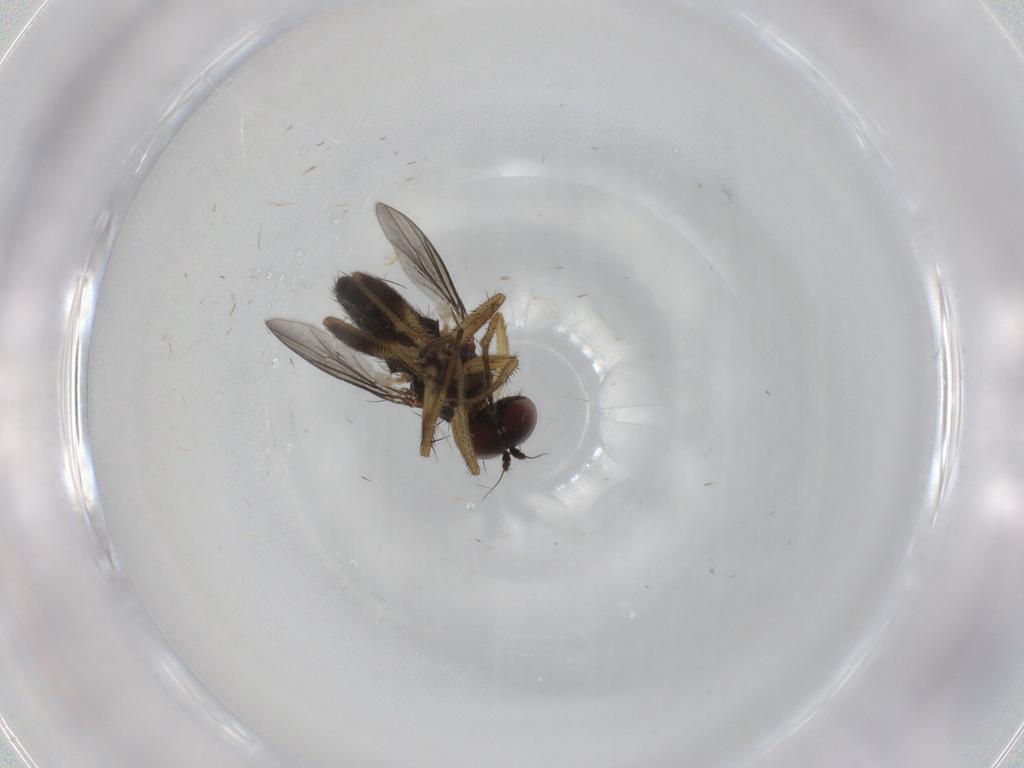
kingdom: Animalia
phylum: Arthropoda
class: Insecta
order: Diptera
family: Dolichopodidae
